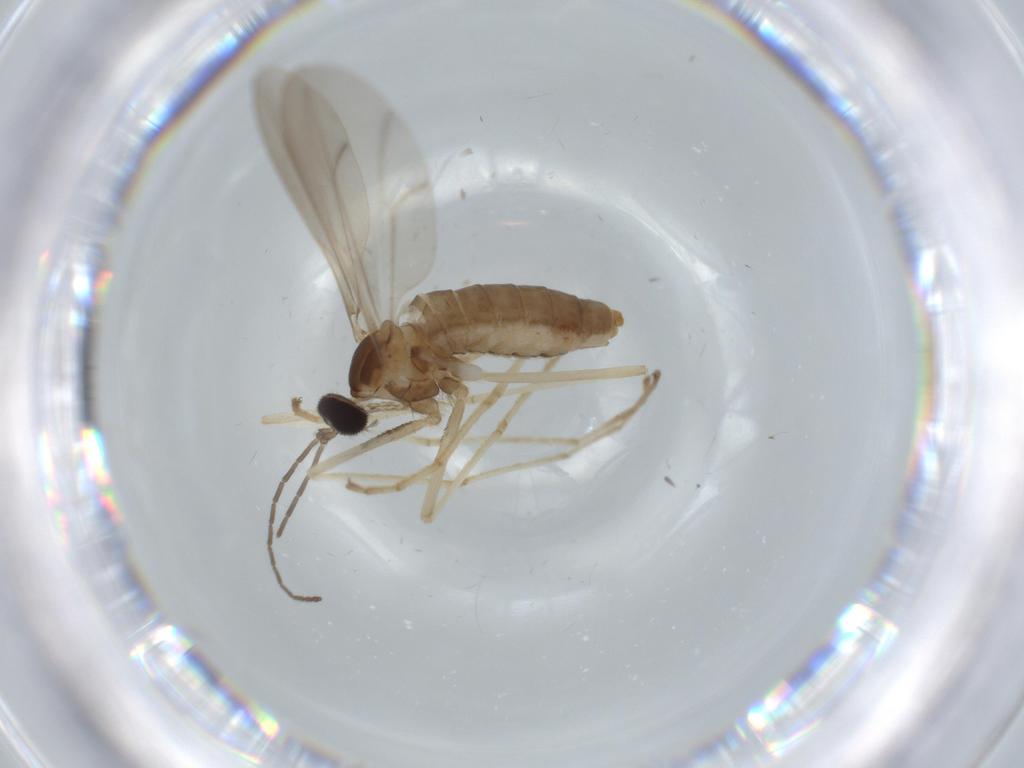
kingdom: Animalia
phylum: Arthropoda
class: Insecta
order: Diptera
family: Cecidomyiidae
